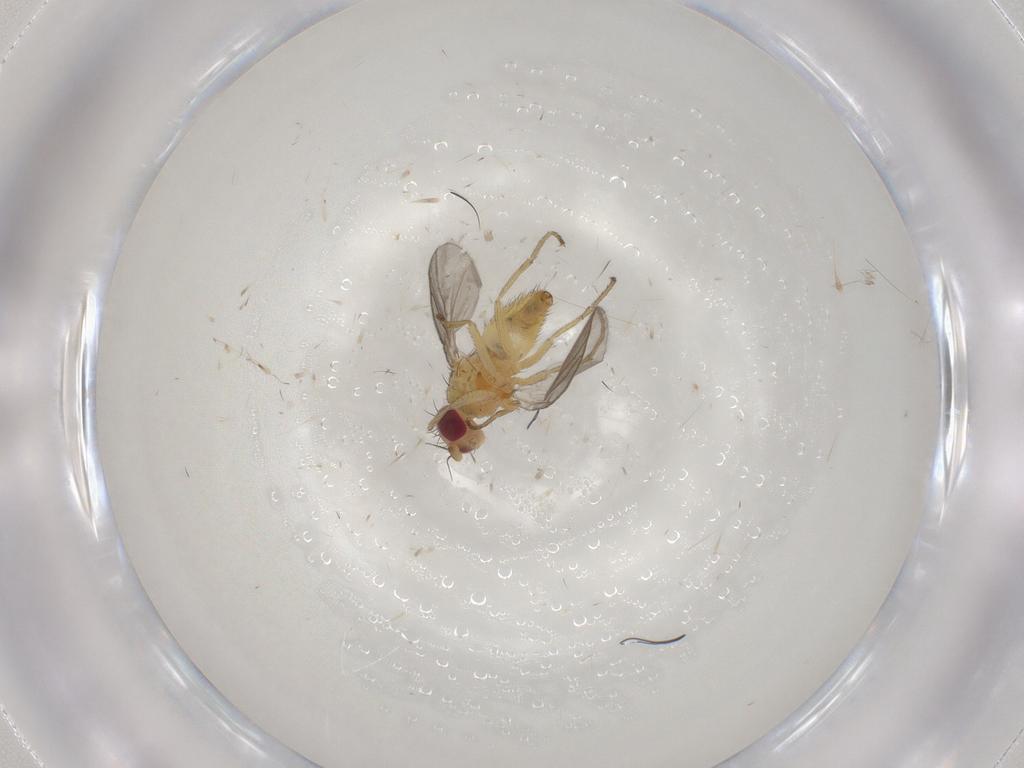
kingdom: Animalia
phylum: Arthropoda
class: Insecta
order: Diptera
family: Agromyzidae
